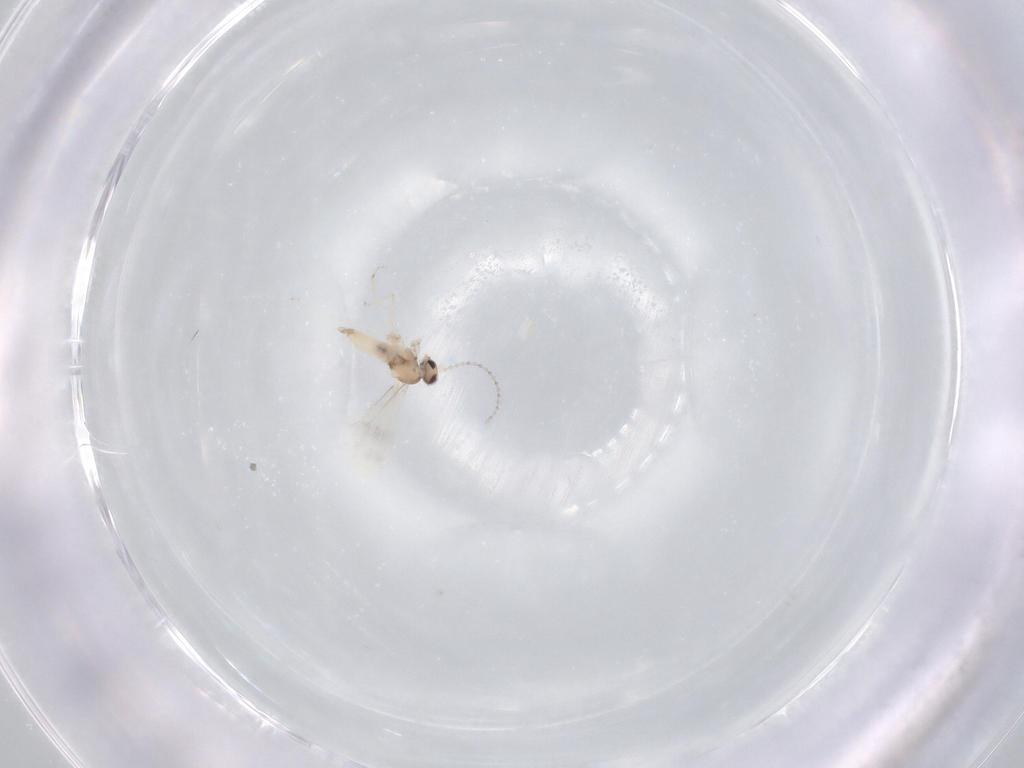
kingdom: Animalia
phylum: Arthropoda
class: Insecta
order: Diptera
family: Cecidomyiidae
